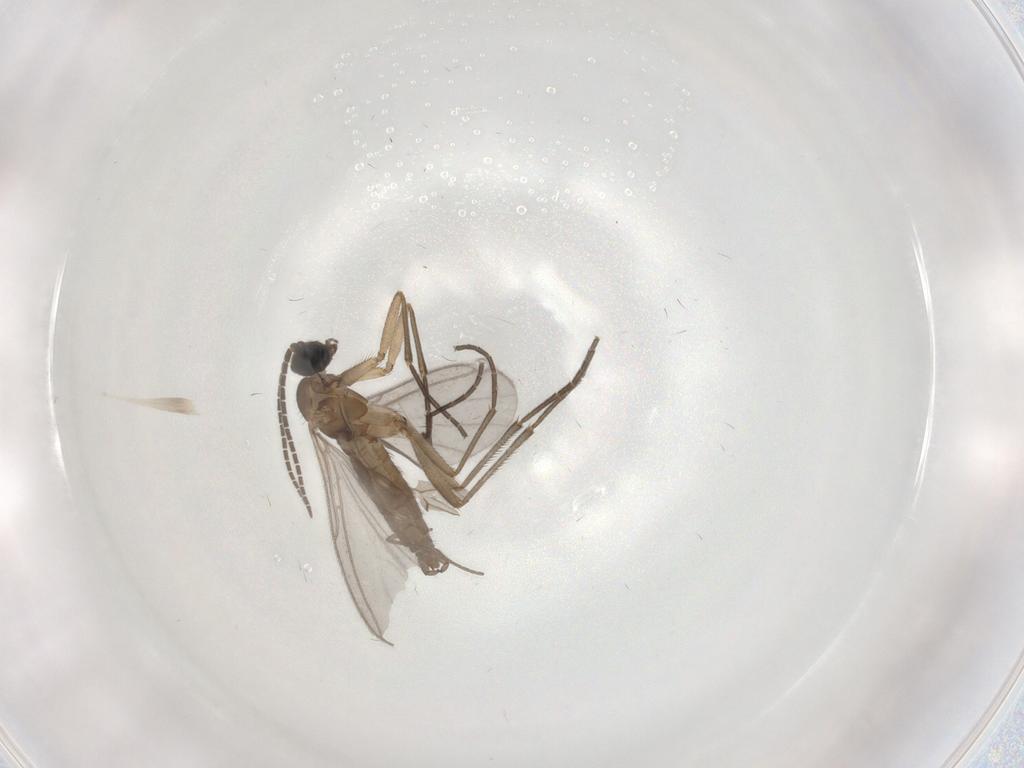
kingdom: Animalia
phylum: Arthropoda
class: Insecta
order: Diptera
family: Sciaridae
